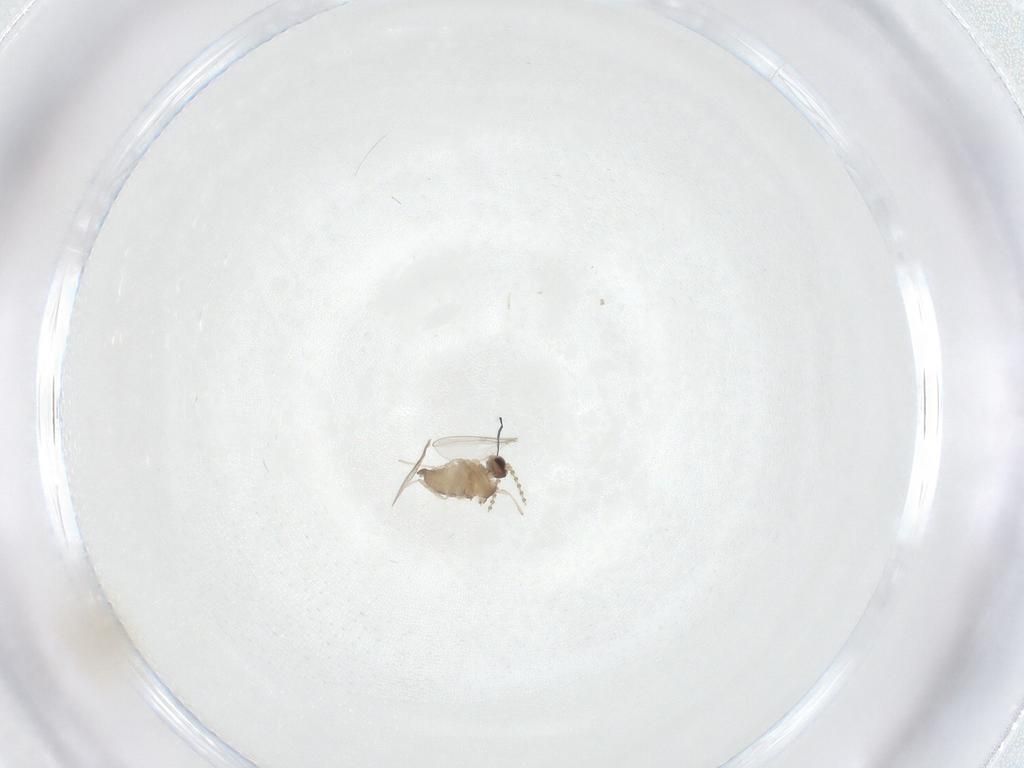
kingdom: Animalia
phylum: Arthropoda
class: Insecta
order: Diptera
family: Chironomidae
